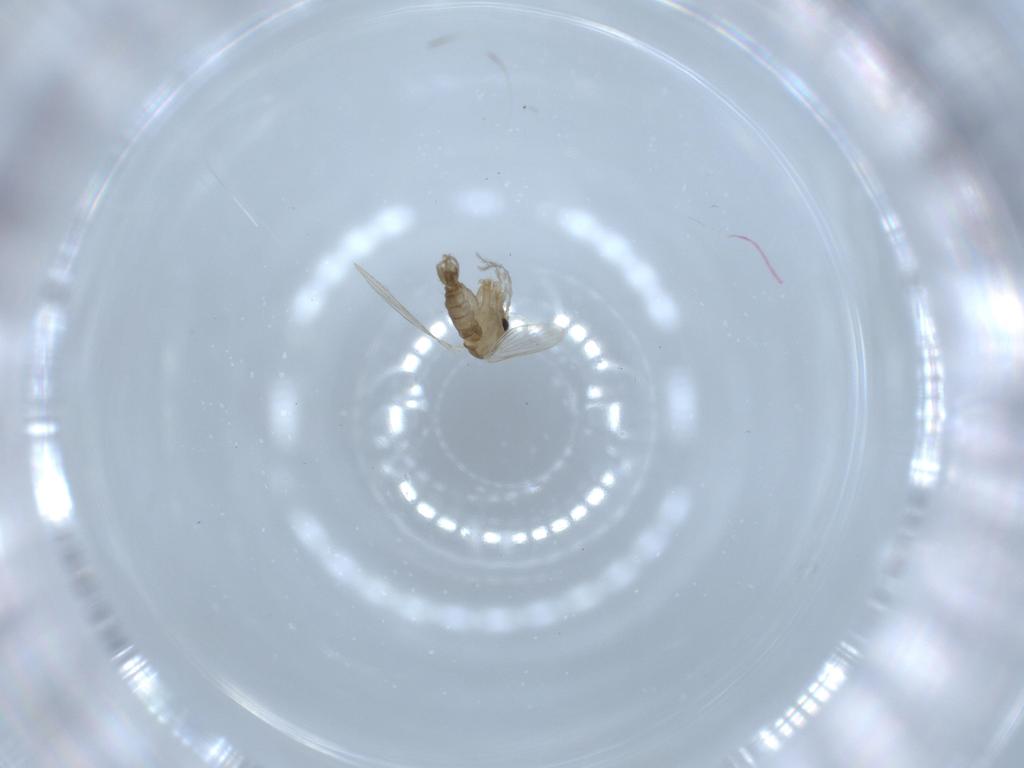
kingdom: Animalia
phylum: Arthropoda
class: Insecta
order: Diptera
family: Psychodidae
